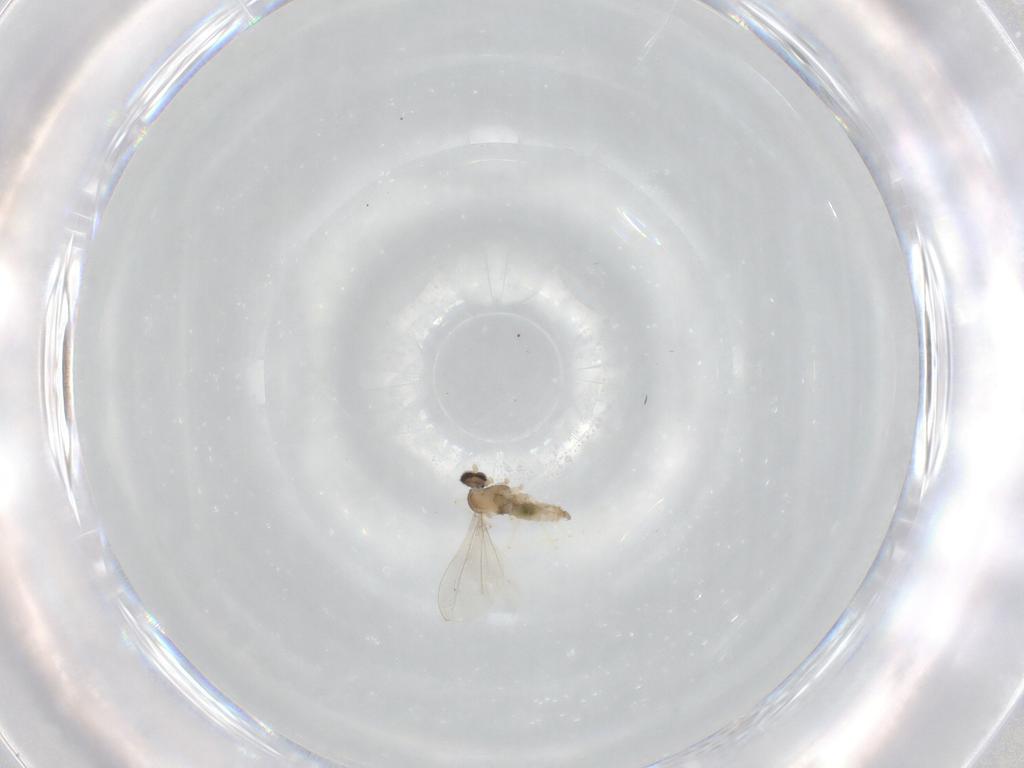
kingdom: Animalia
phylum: Arthropoda
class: Insecta
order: Diptera
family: Cecidomyiidae
